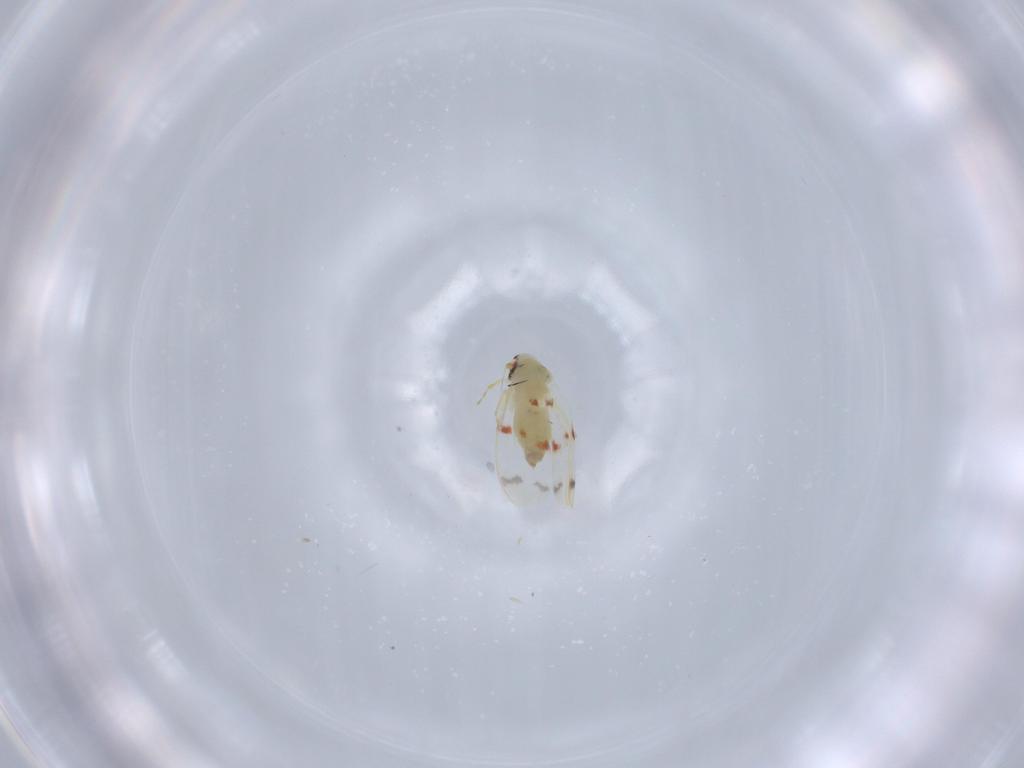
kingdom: Animalia
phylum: Arthropoda
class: Insecta
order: Hemiptera
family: Aleyrodidae
